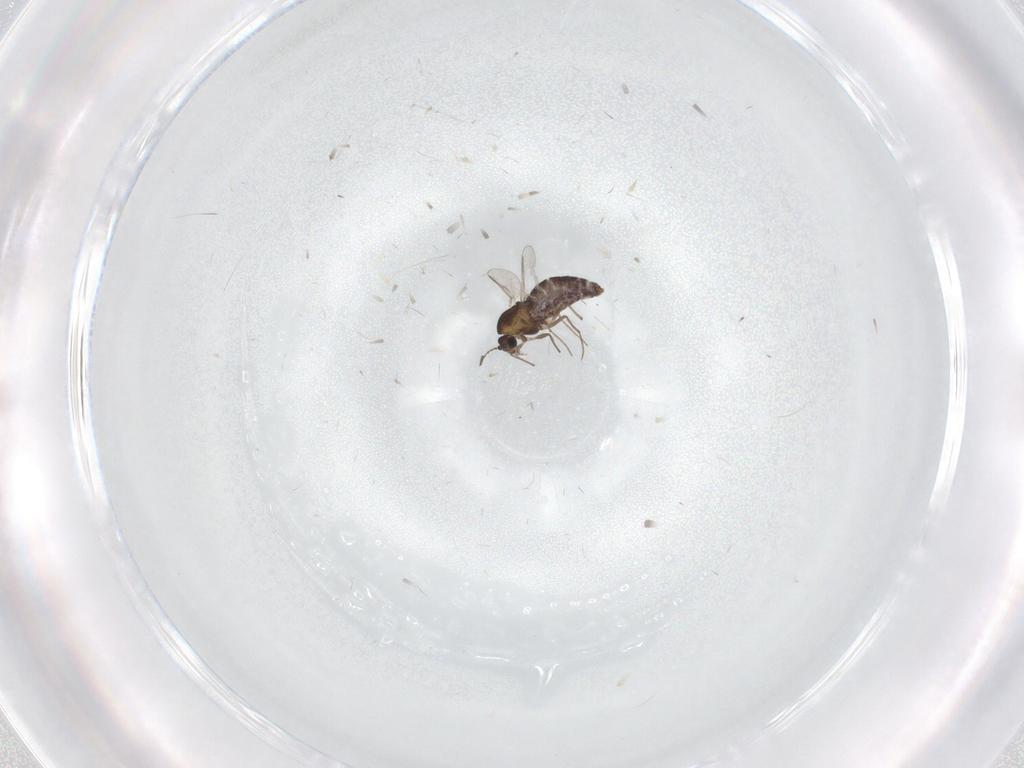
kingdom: Animalia
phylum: Arthropoda
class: Insecta
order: Diptera
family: Chironomidae
